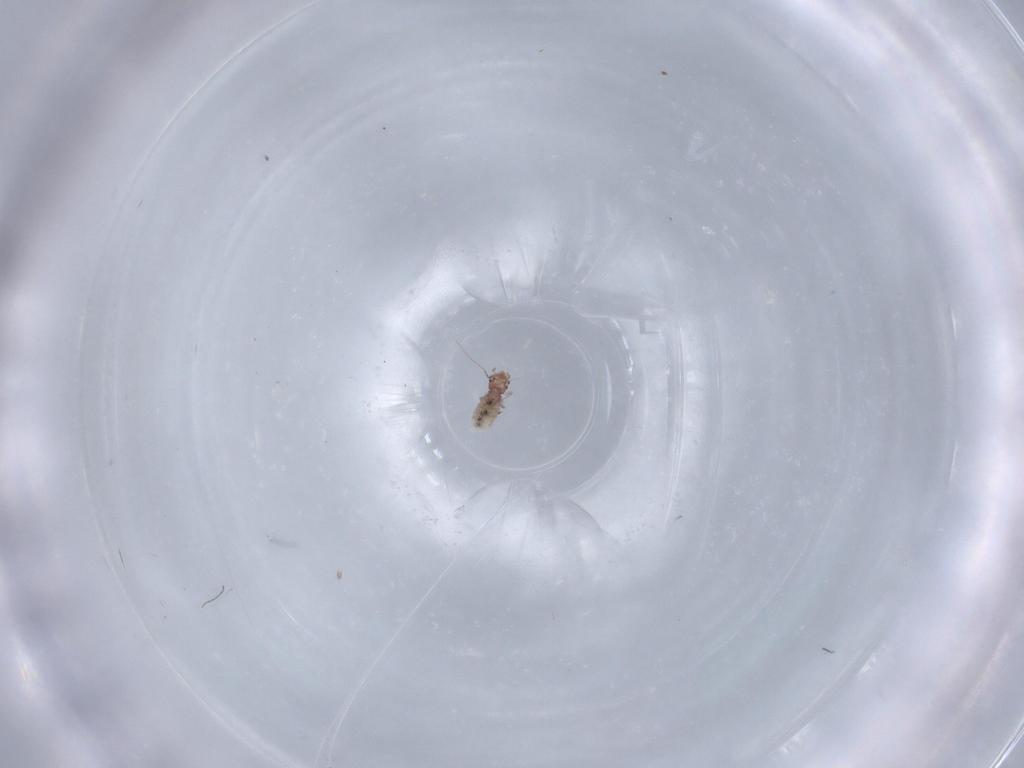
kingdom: Animalia
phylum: Arthropoda
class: Insecta
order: Psocodea
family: Liposcelididae
